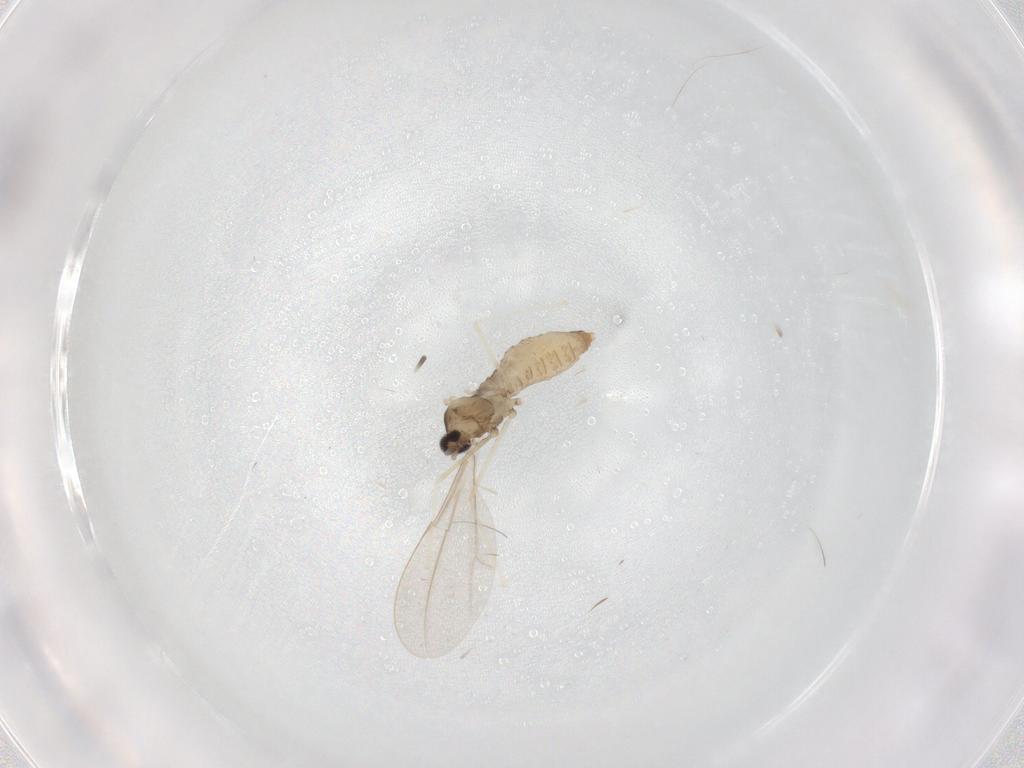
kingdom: Animalia
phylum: Arthropoda
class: Insecta
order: Diptera
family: Cecidomyiidae
